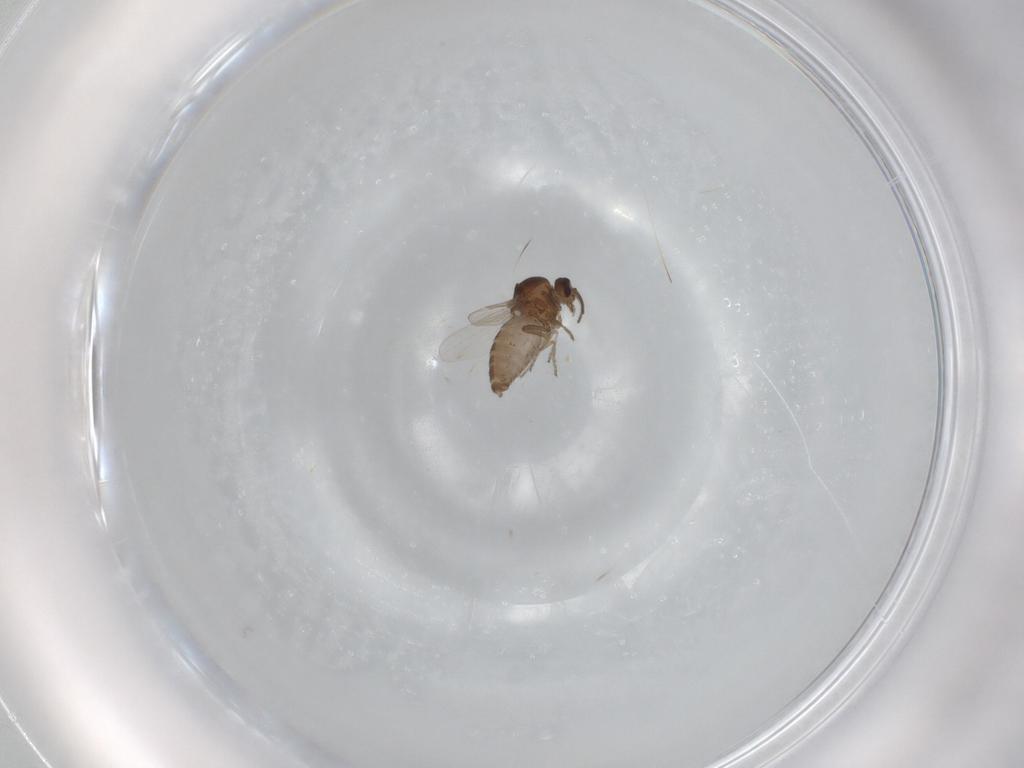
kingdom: Animalia
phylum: Arthropoda
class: Insecta
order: Diptera
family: Ceratopogonidae
